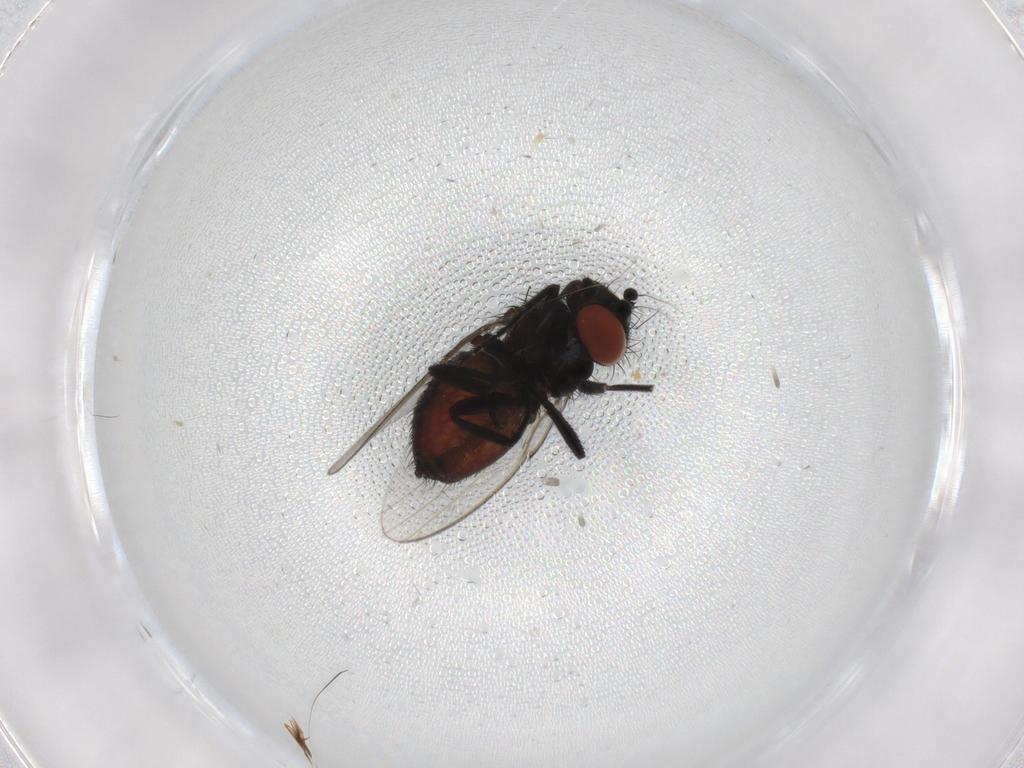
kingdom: Animalia
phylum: Arthropoda
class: Insecta
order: Diptera
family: Milichiidae
